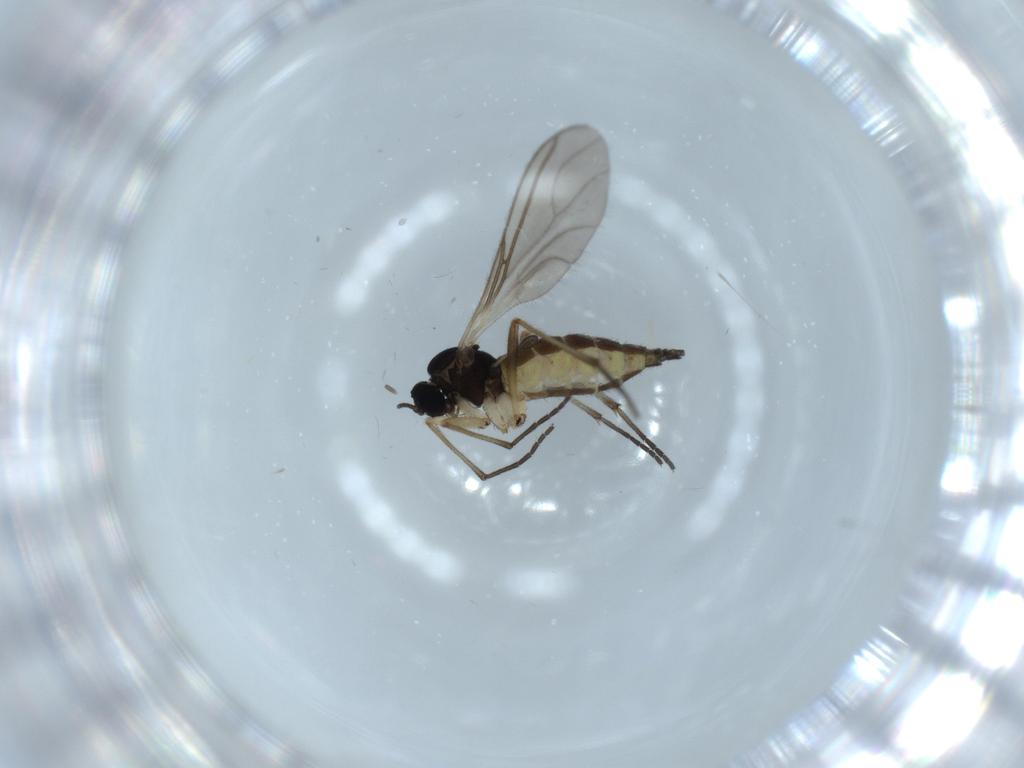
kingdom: Animalia
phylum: Arthropoda
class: Insecta
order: Diptera
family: Sciaridae
